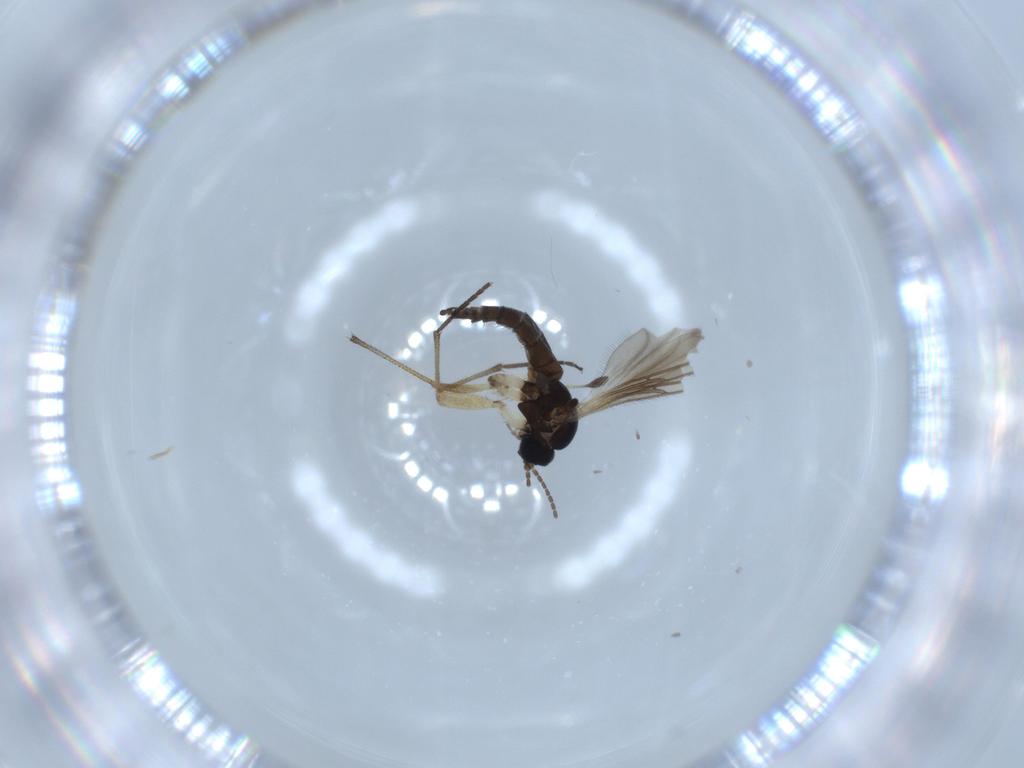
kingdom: Animalia
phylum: Arthropoda
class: Insecta
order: Diptera
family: Sciaridae
